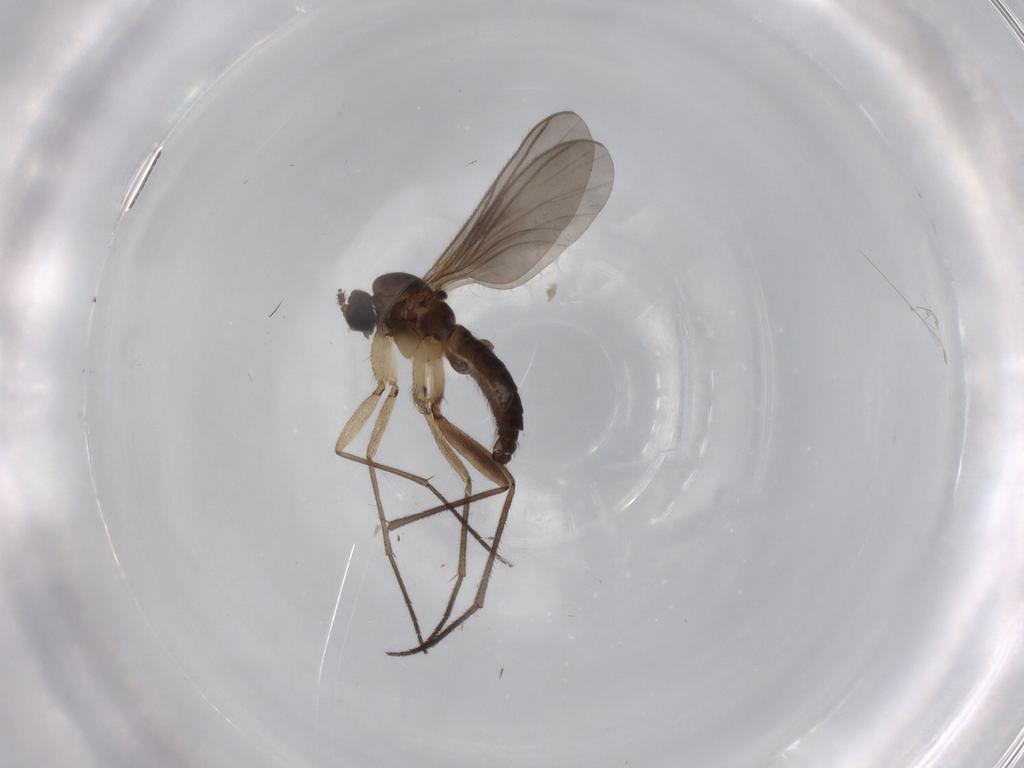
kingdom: Animalia
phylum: Arthropoda
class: Insecta
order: Diptera
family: Sciaridae
